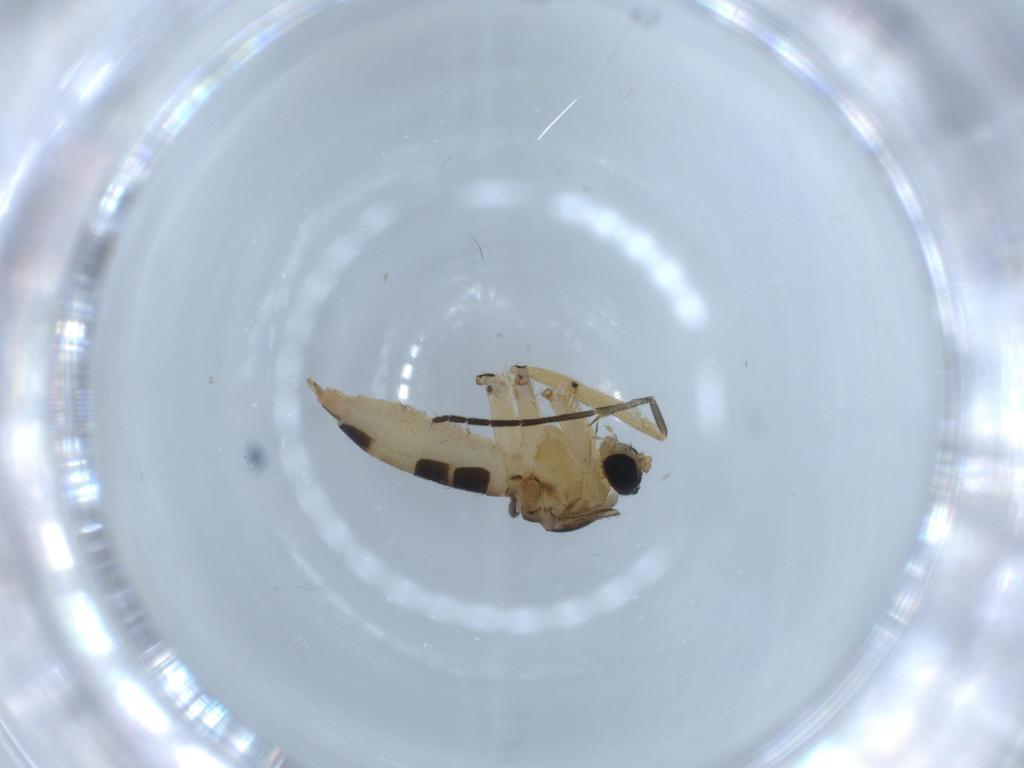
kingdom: Animalia
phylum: Arthropoda
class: Insecta
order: Diptera
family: Sciaridae
